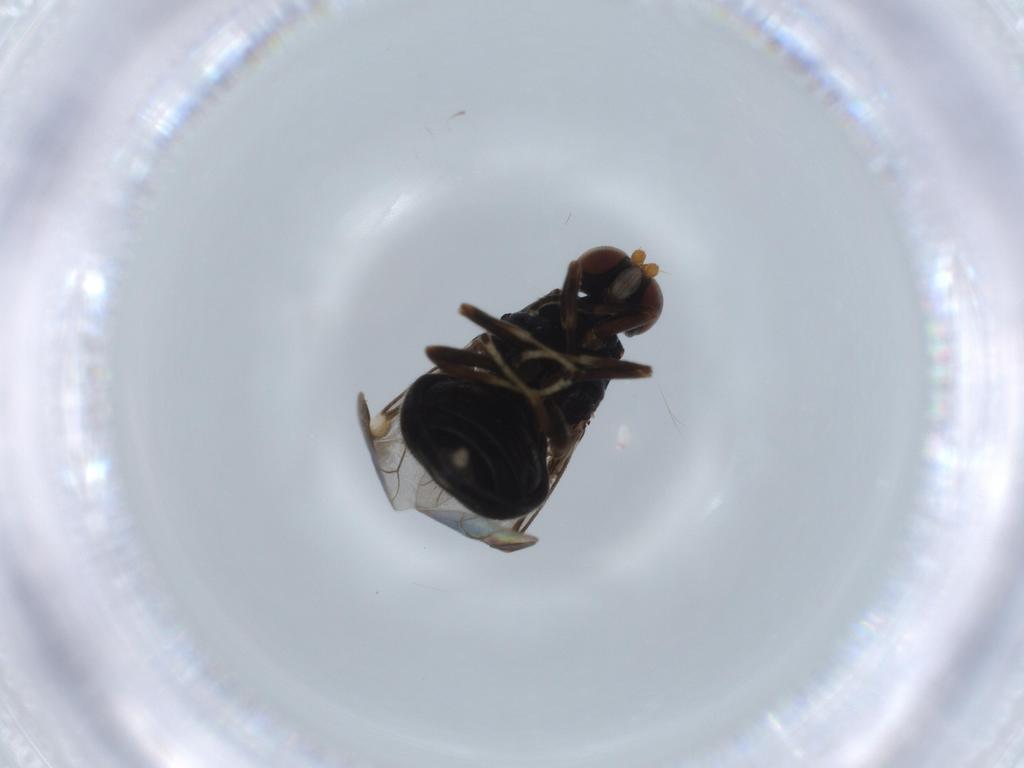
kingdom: Animalia
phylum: Arthropoda
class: Insecta
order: Diptera
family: Stratiomyidae
